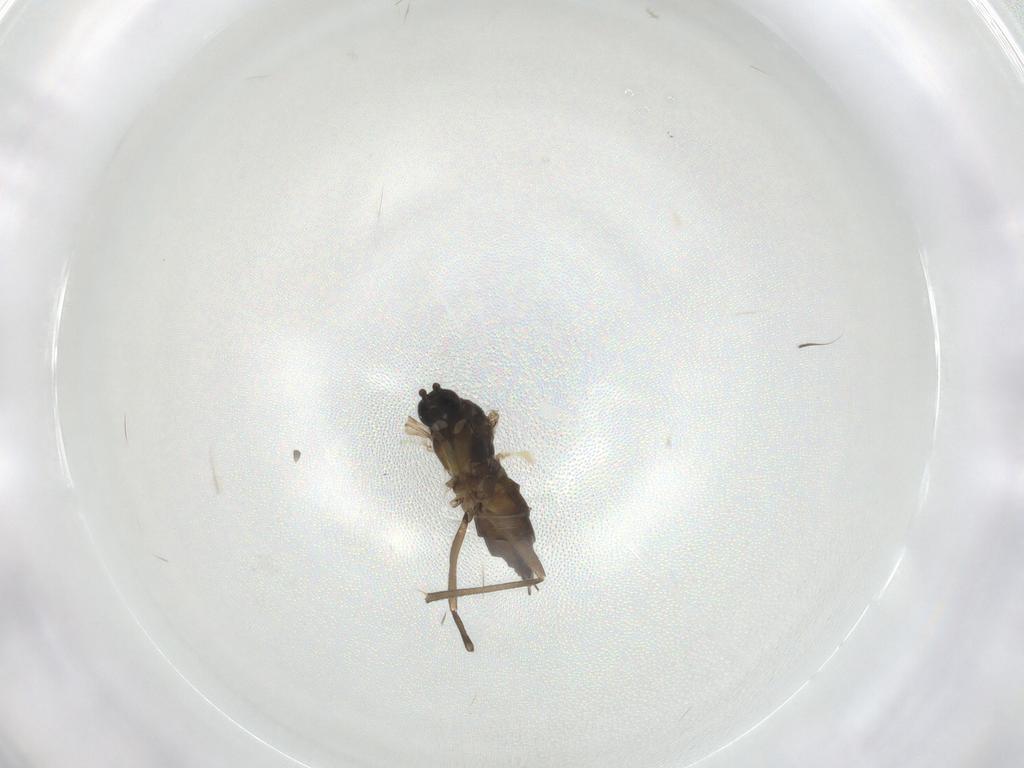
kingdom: Animalia
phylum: Arthropoda
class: Insecta
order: Diptera
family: Sciaridae
